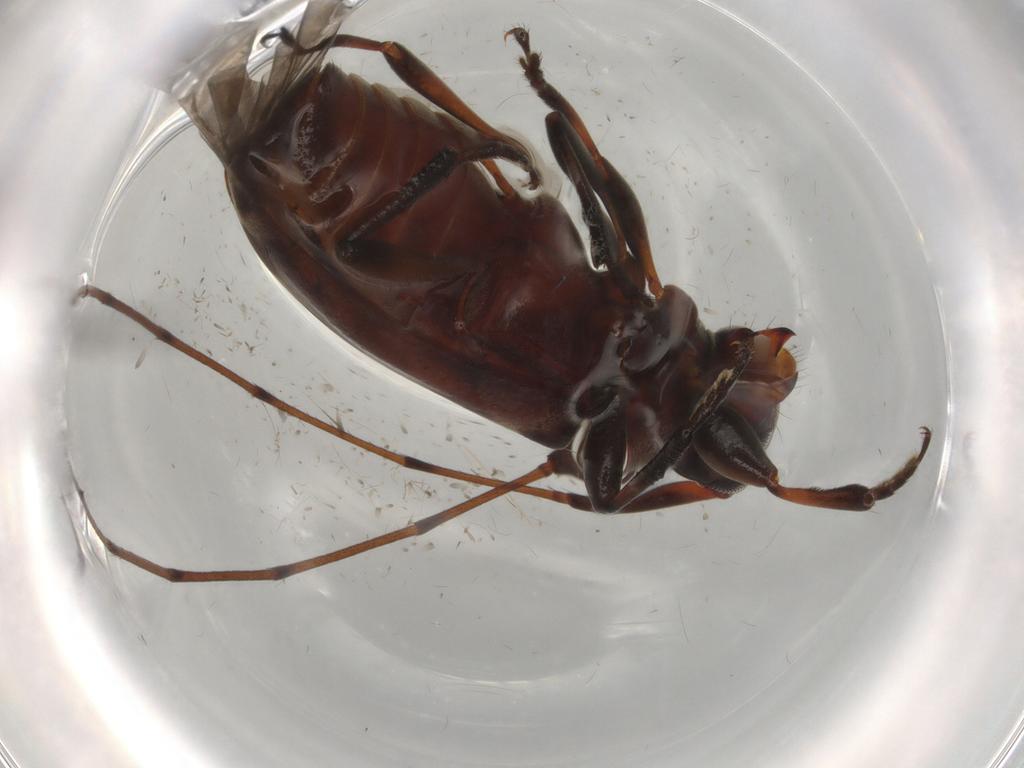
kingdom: Animalia
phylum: Arthropoda
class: Insecta
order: Coleoptera
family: Cerambycidae
